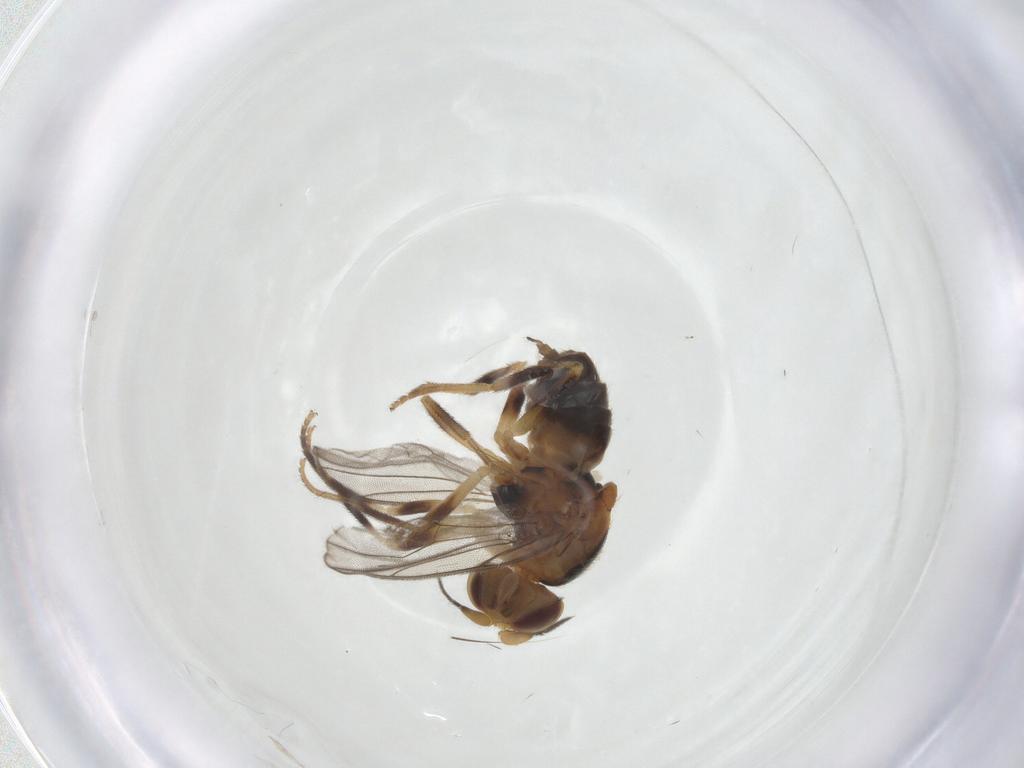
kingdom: Animalia
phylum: Arthropoda
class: Insecta
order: Diptera
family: Chloropidae
